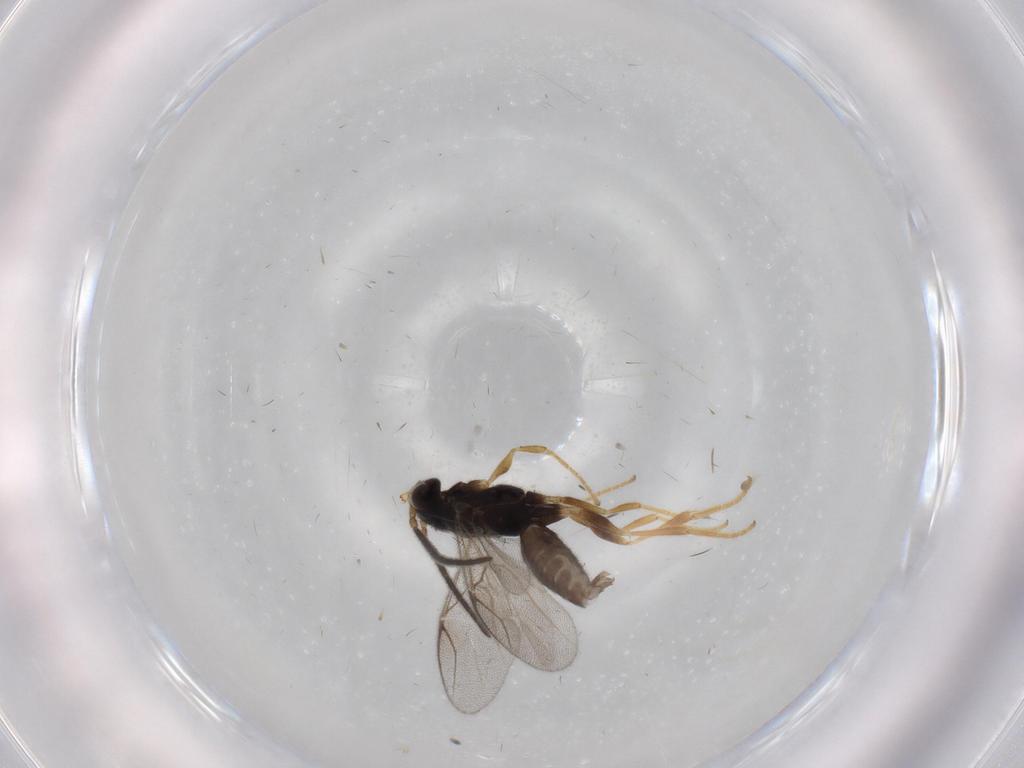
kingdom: Animalia
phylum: Arthropoda
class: Insecta
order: Hymenoptera
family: Dryinidae
